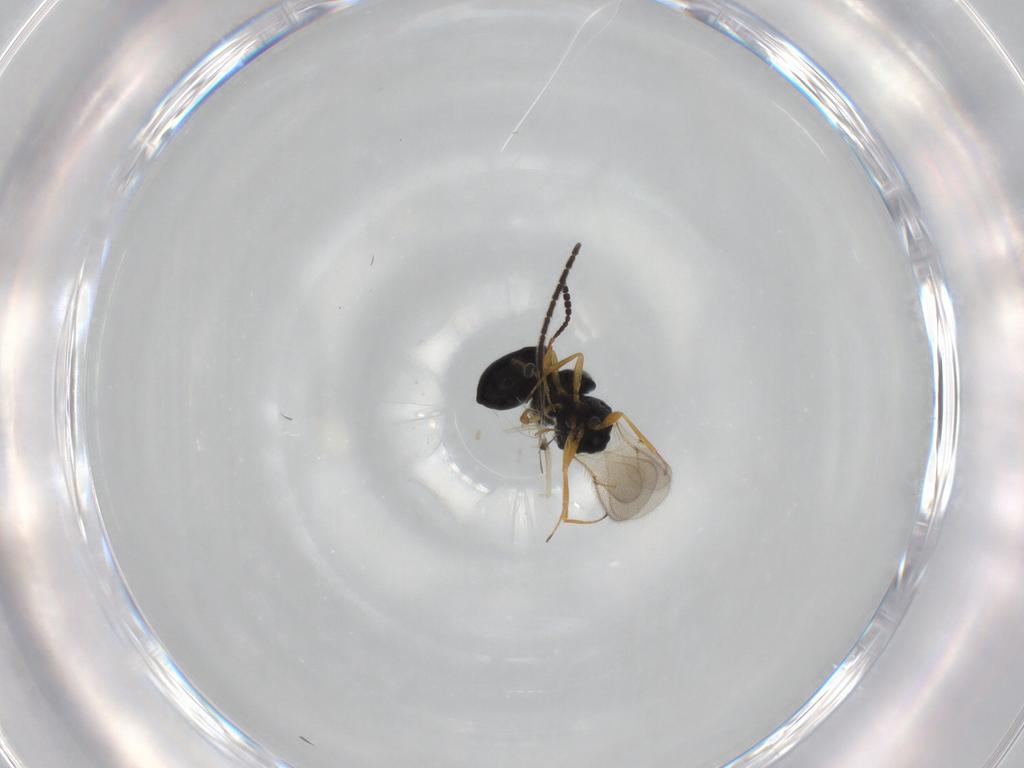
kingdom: Animalia
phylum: Arthropoda
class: Insecta
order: Hymenoptera
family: Scelionidae
